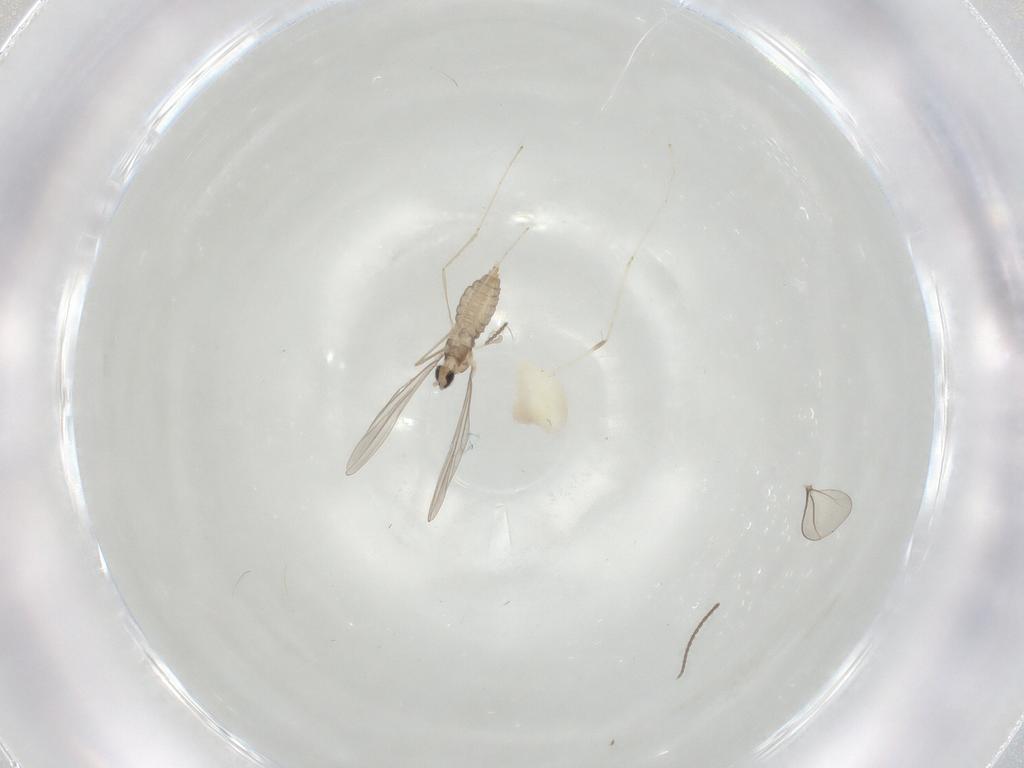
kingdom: Animalia
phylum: Arthropoda
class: Insecta
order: Diptera
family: Cecidomyiidae
